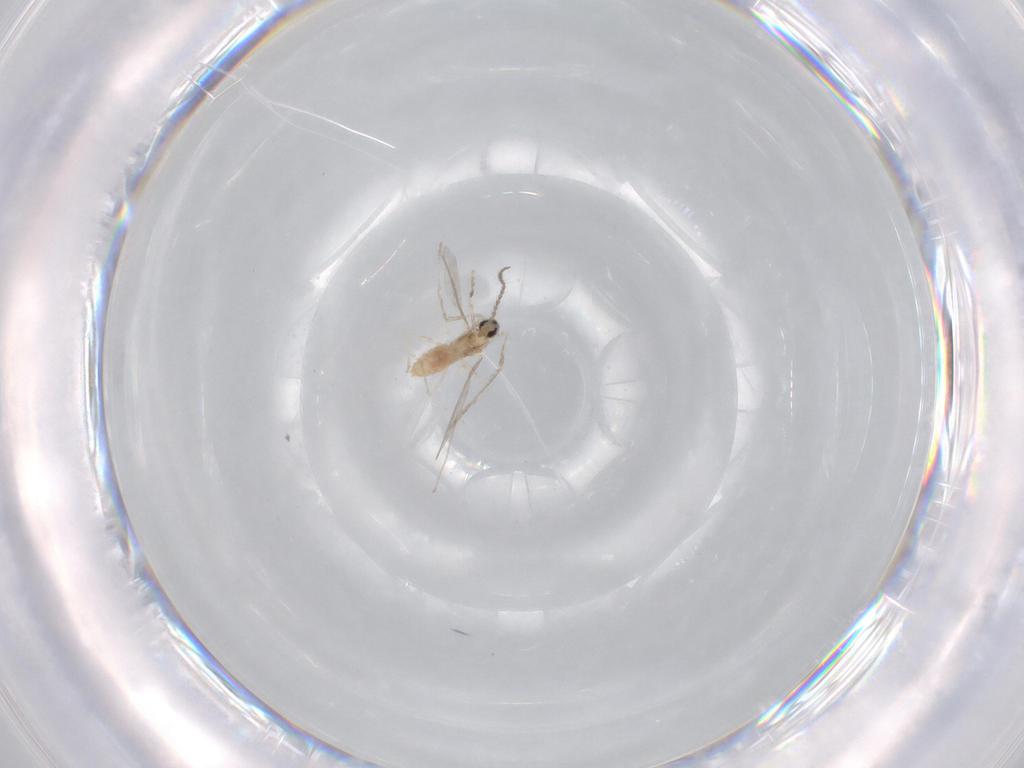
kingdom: Animalia
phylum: Arthropoda
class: Insecta
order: Diptera
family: Cecidomyiidae
